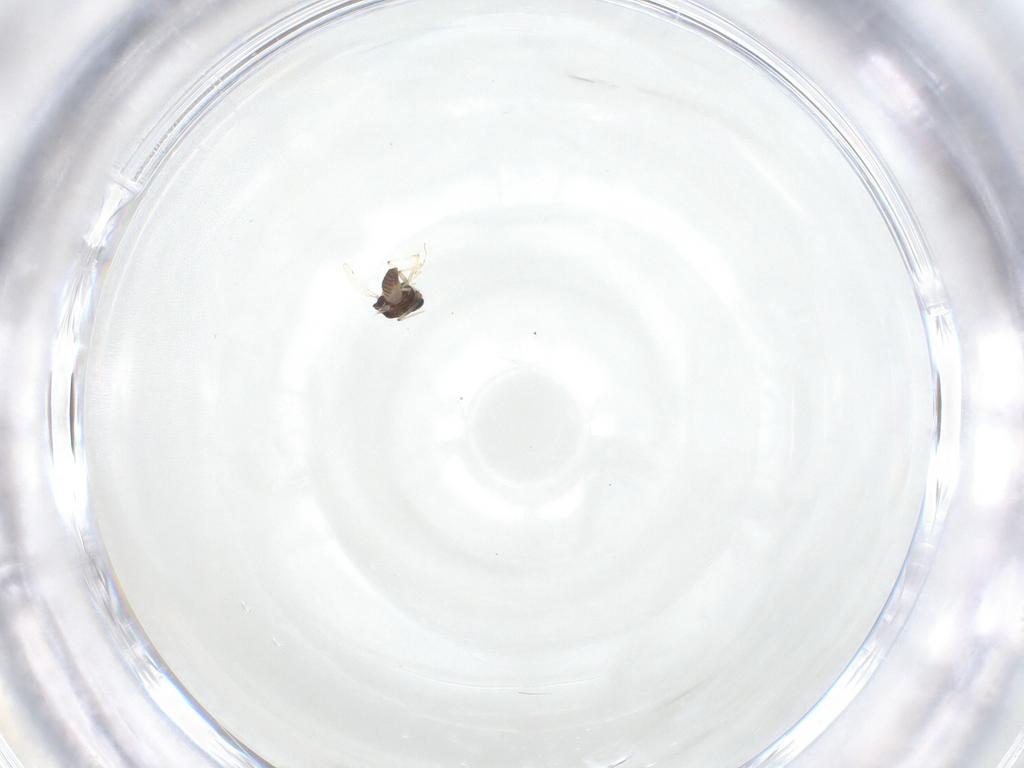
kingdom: Animalia
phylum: Arthropoda
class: Insecta
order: Diptera
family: Chironomidae
